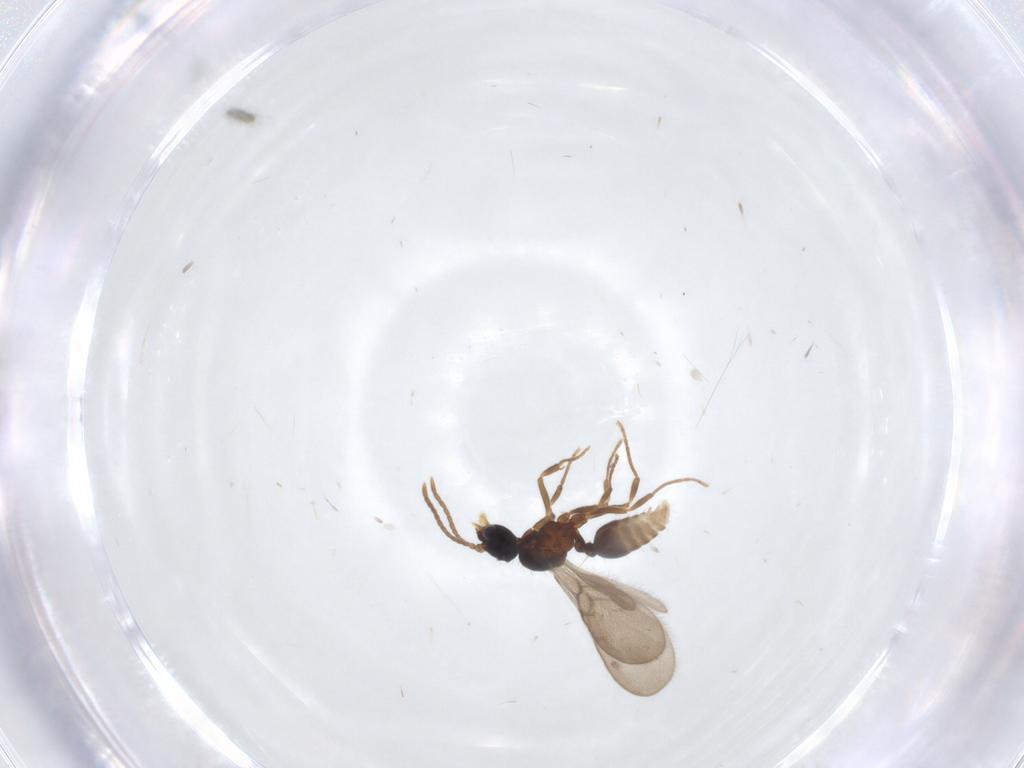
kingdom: Animalia
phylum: Arthropoda
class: Insecta
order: Hymenoptera
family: Formicidae
